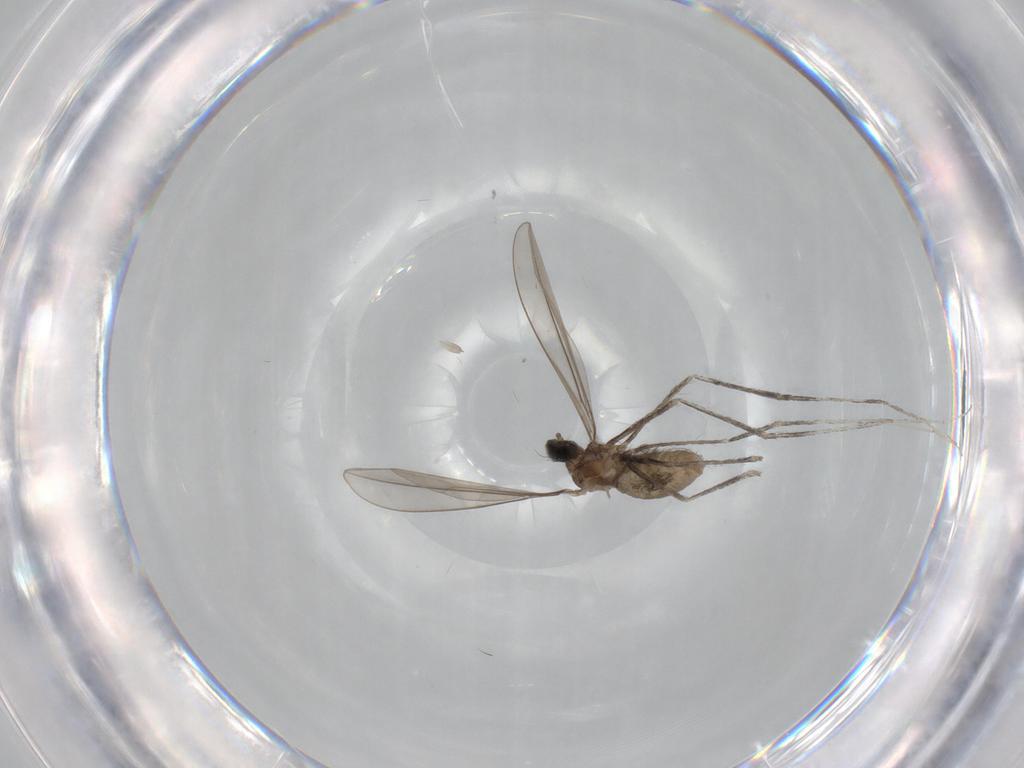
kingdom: Animalia
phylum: Arthropoda
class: Insecta
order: Diptera
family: Cecidomyiidae
